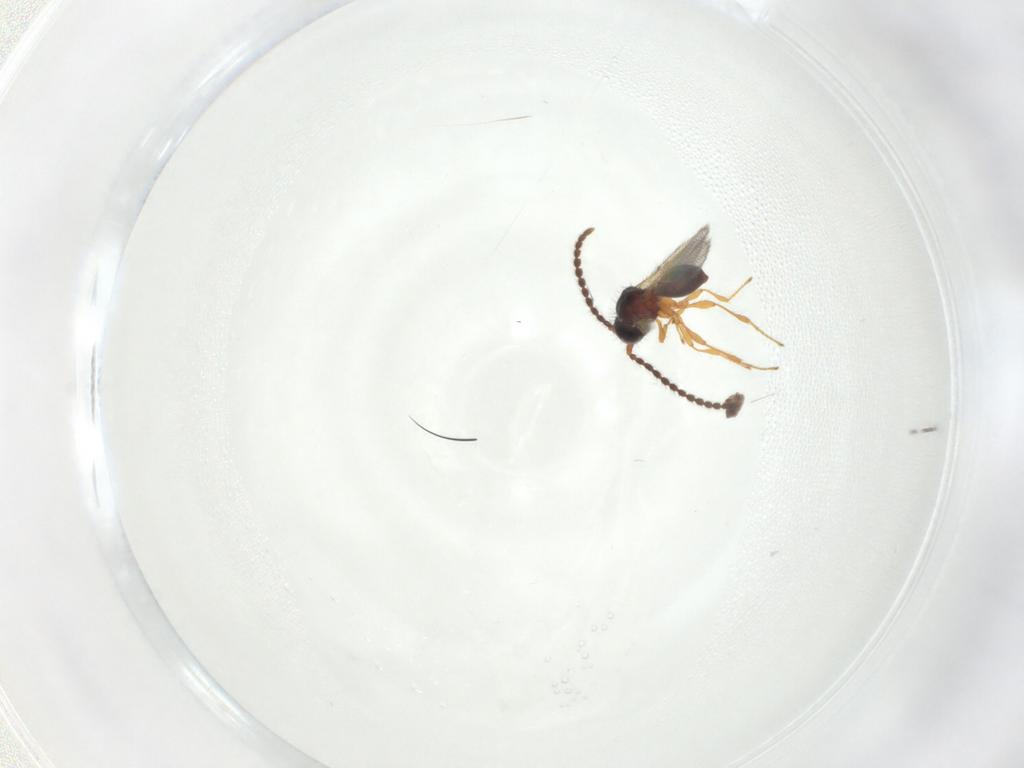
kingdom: Animalia
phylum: Arthropoda
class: Insecta
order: Hymenoptera
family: Diapriidae
